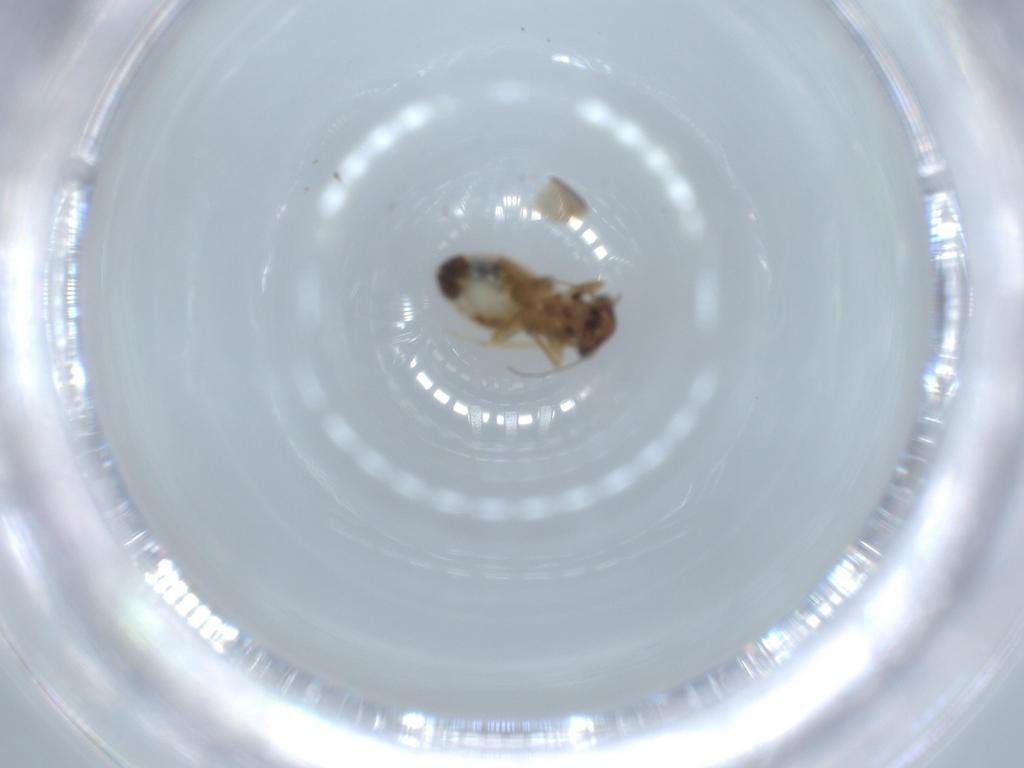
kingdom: Animalia
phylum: Arthropoda
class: Insecta
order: Psocodea
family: Lepidopsocidae
